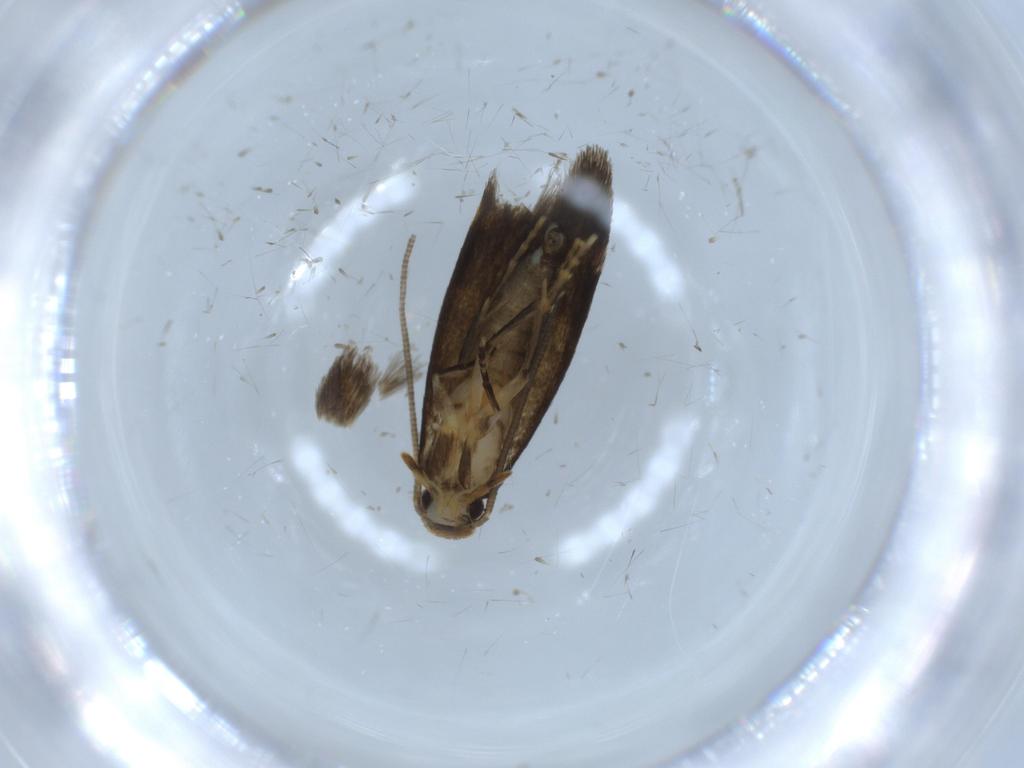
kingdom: Animalia
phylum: Arthropoda
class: Insecta
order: Lepidoptera
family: Tineidae
